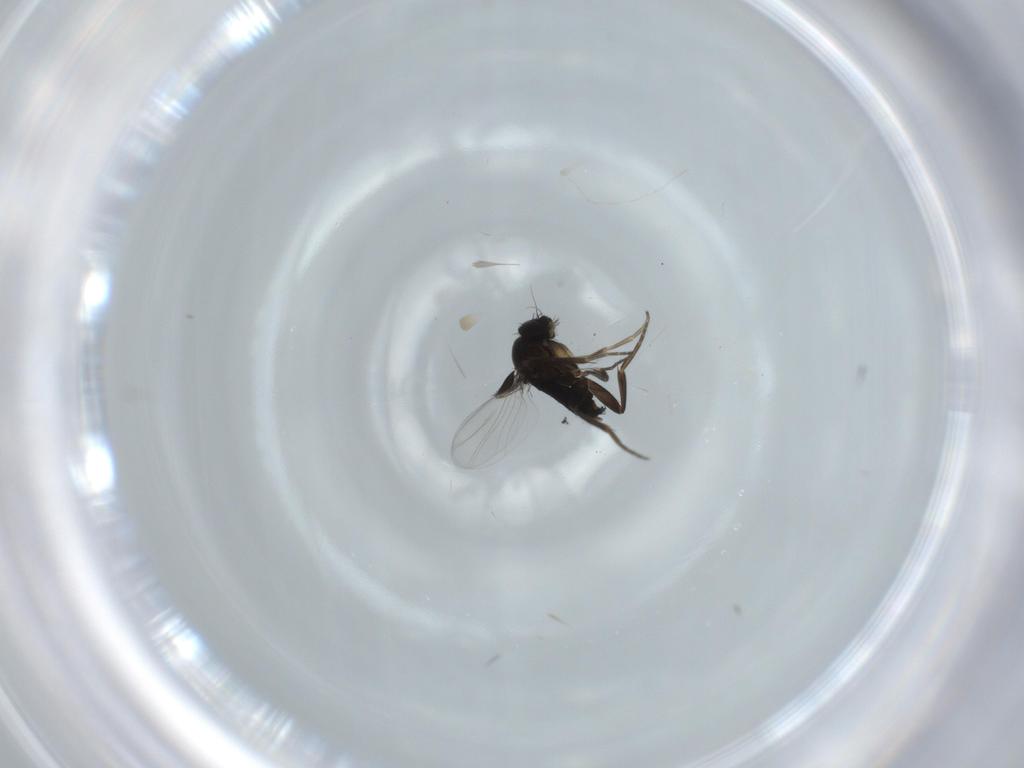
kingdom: Animalia
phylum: Arthropoda
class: Insecta
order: Diptera
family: Phoridae
